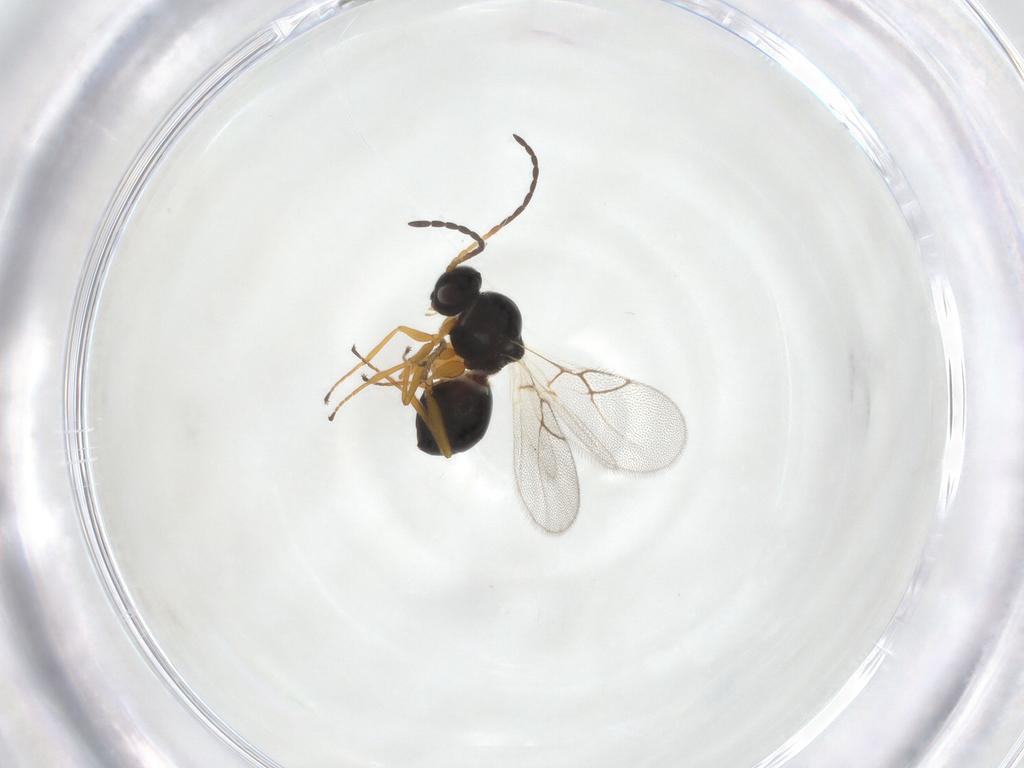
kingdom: Animalia
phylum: Arthropoda
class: Insecta
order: Hymenoptera
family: Figitidae
